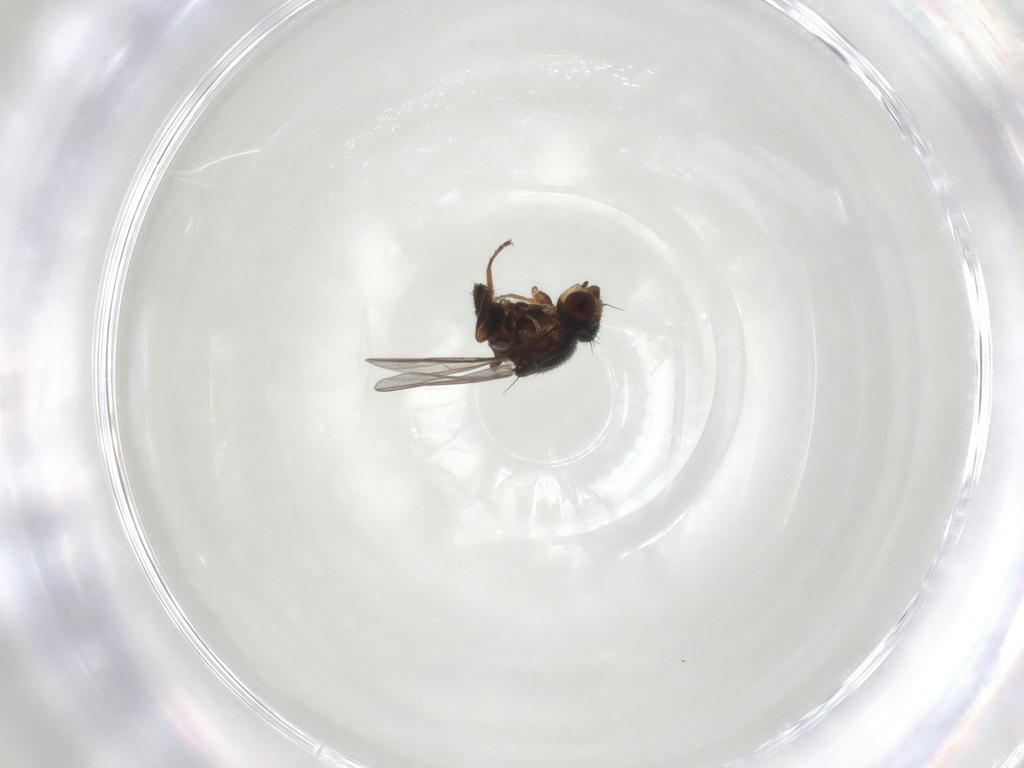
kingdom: Animalia
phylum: Arthropoda
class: Insecta
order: Diptera
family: Chloropidae
